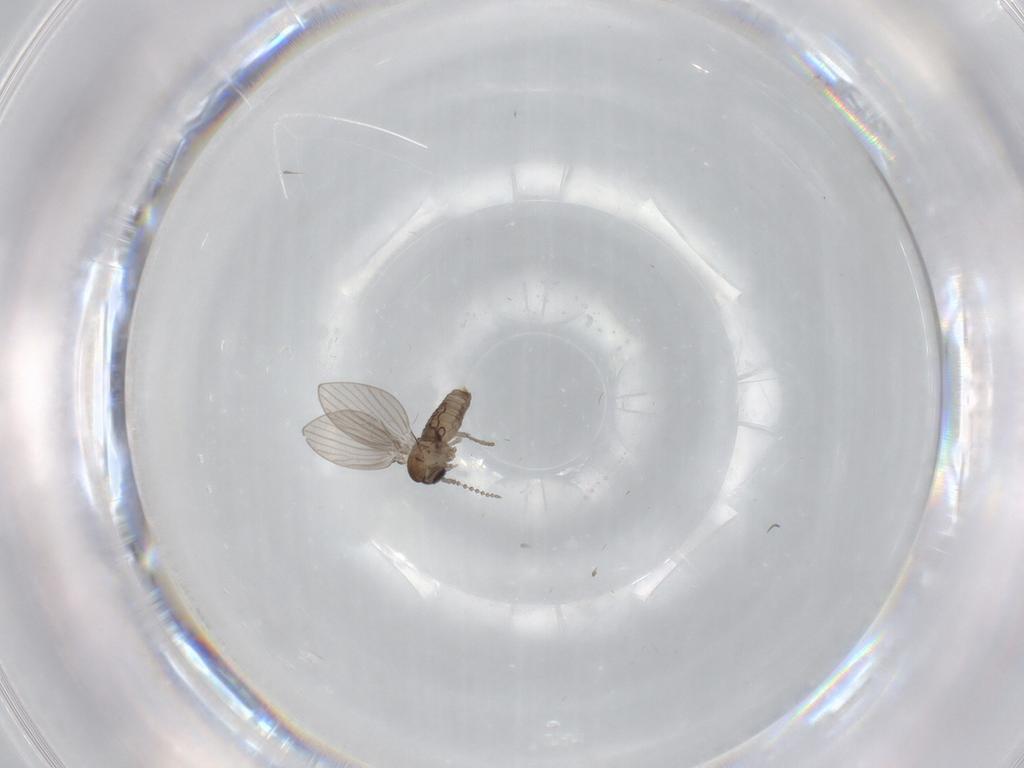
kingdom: Animalia
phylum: Arthropoda
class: Insecta
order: Diptera
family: Psychodidae
